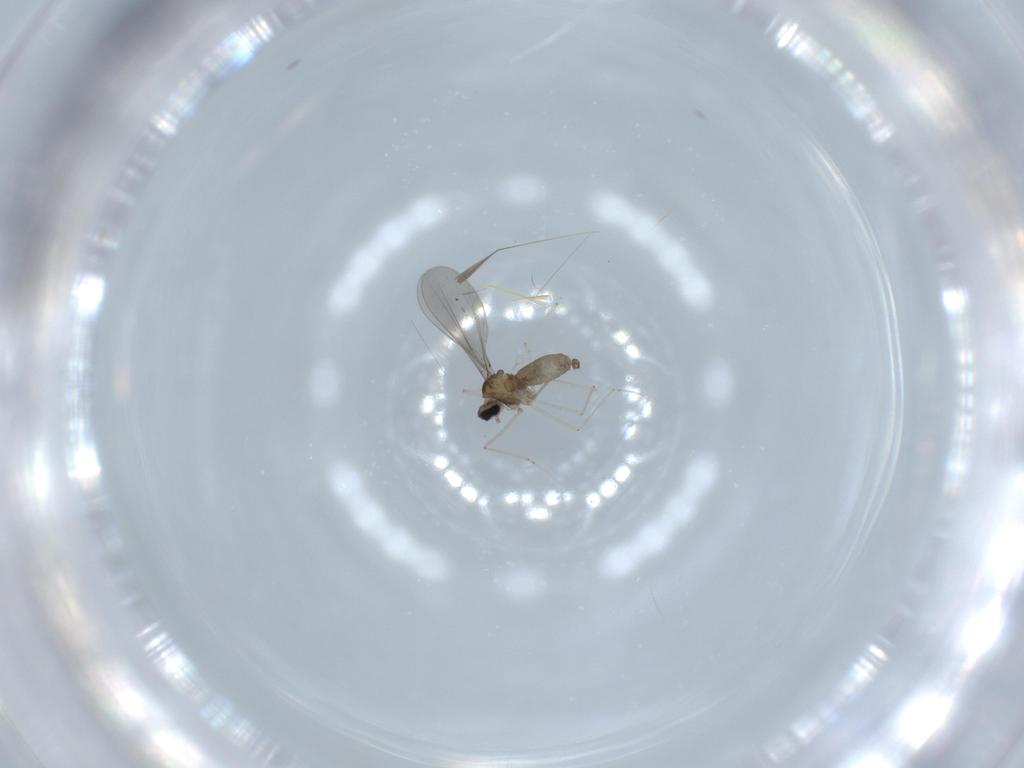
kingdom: Animalia
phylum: Arthropoda
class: Insecta
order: Diptera
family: Cecidomyiidae
